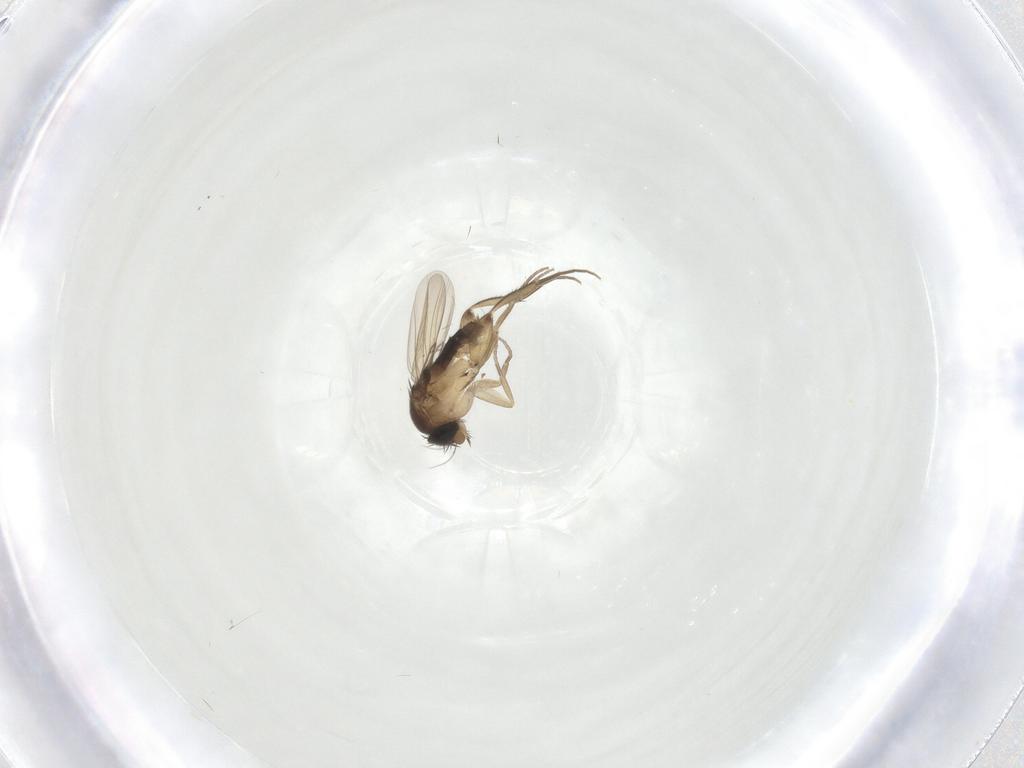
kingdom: Animalia
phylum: Arthropoda
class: Insecta
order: Diptera
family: Phoridae
